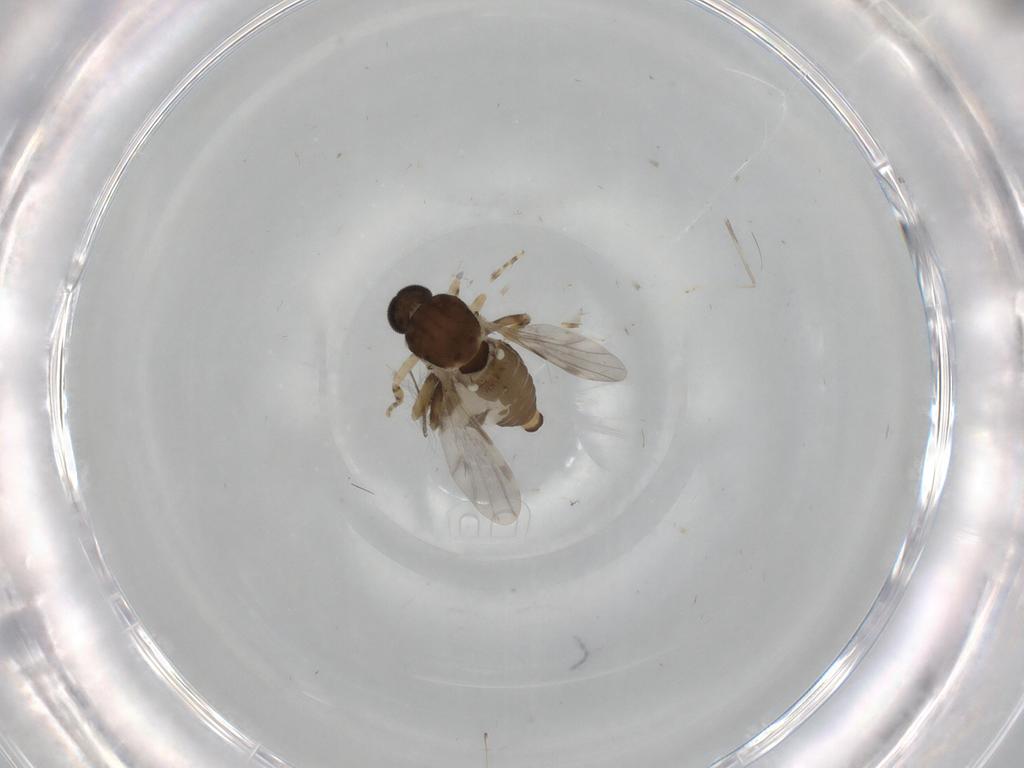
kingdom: Animalia
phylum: Arthropoda
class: Insecta
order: Diptera
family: Ceratopogonidae
